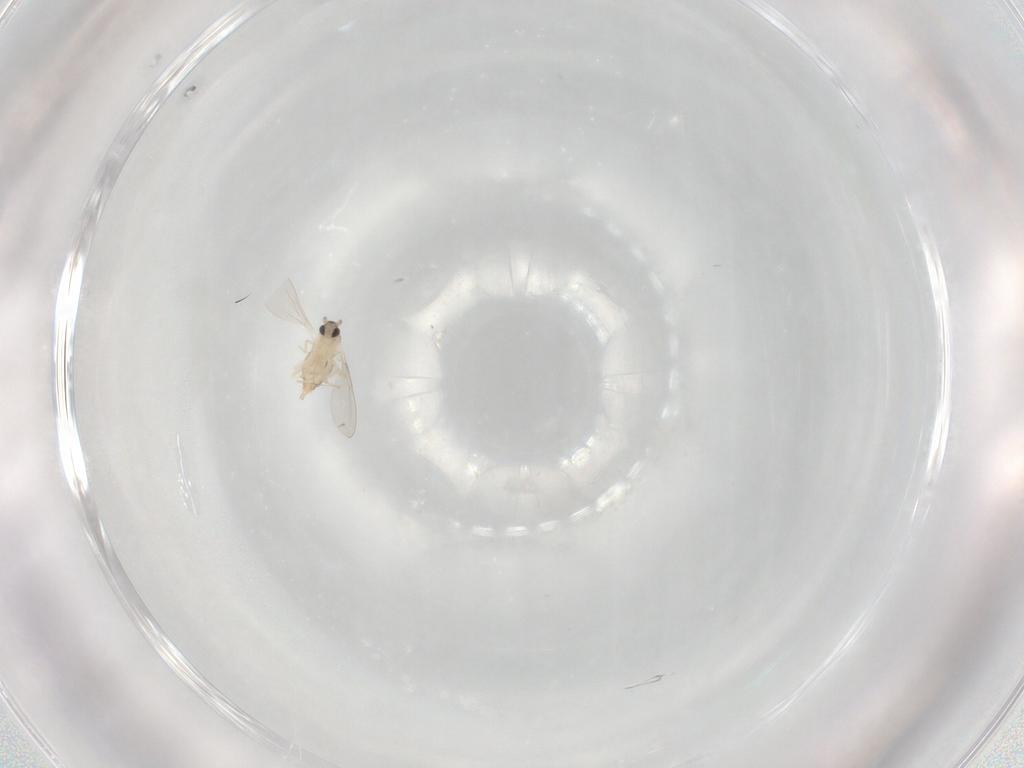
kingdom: Animalia
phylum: Arthropoda
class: Insecta
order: Diptera
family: Cecidomyiidae
